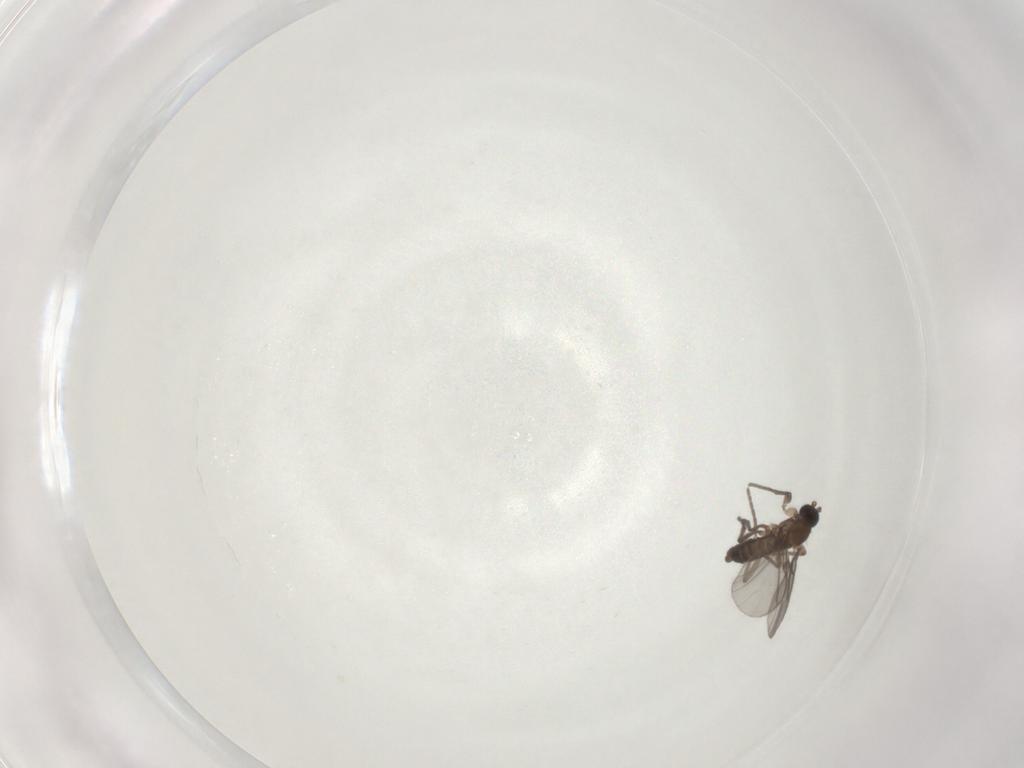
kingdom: Animalia
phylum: Arthropoda
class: Insecta
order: Diptera
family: Sciaridae
